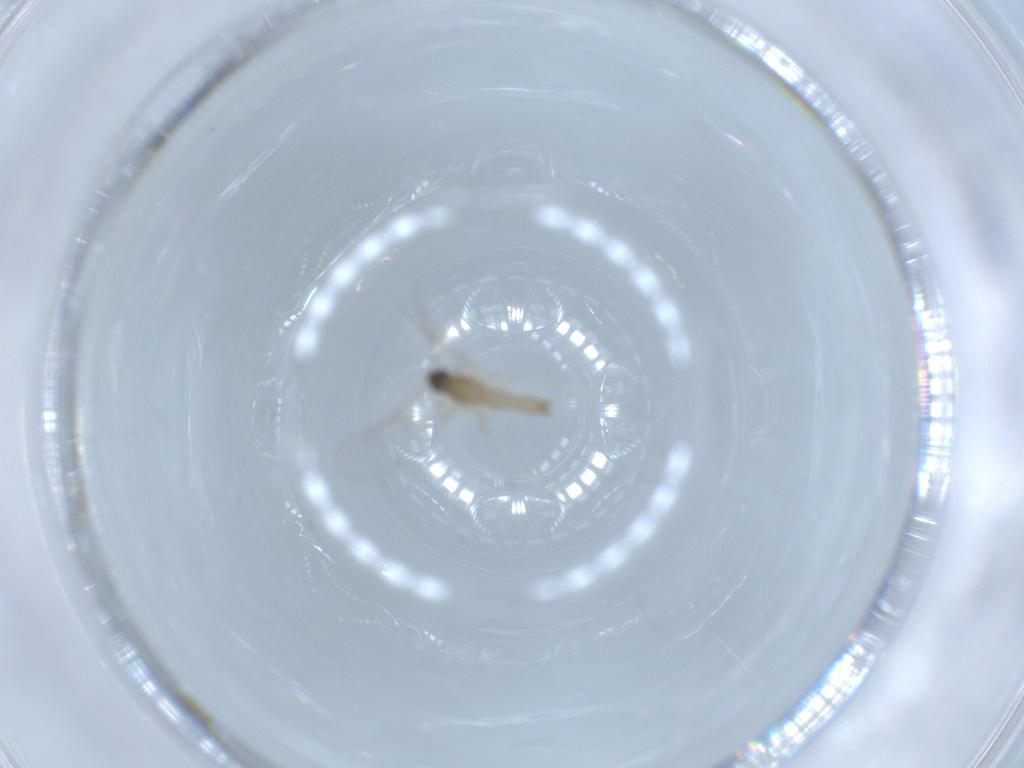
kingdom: Animalia
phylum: Arthropoda
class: Insecta
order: Diptera
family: Cecidomyiidae
